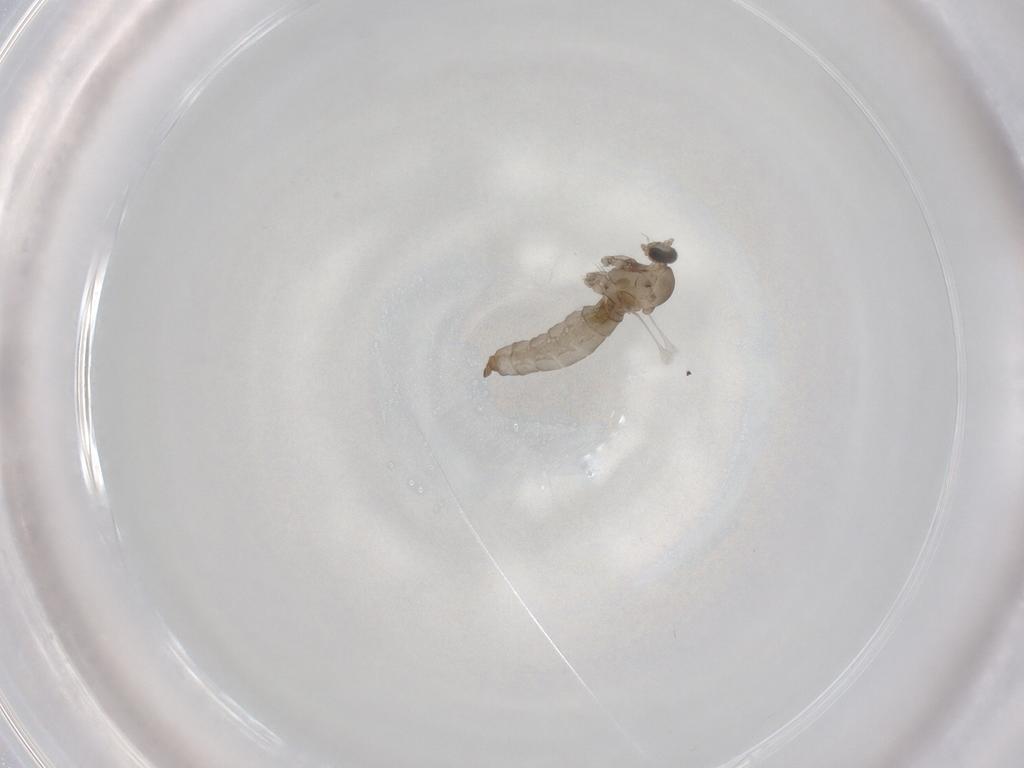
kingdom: Animalia
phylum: Arthropoda
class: Insecta
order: Diptera
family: Cecidomyiidae
